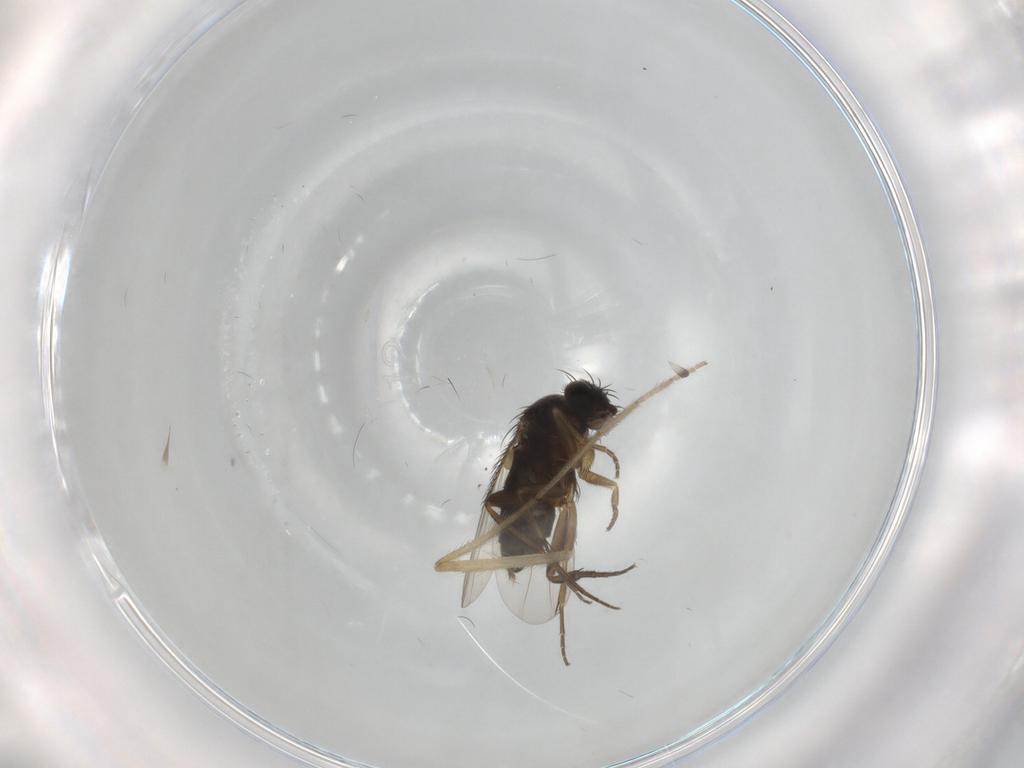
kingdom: Animalia
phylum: Arthropoda
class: Insecta
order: Diptera
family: Phoridae
